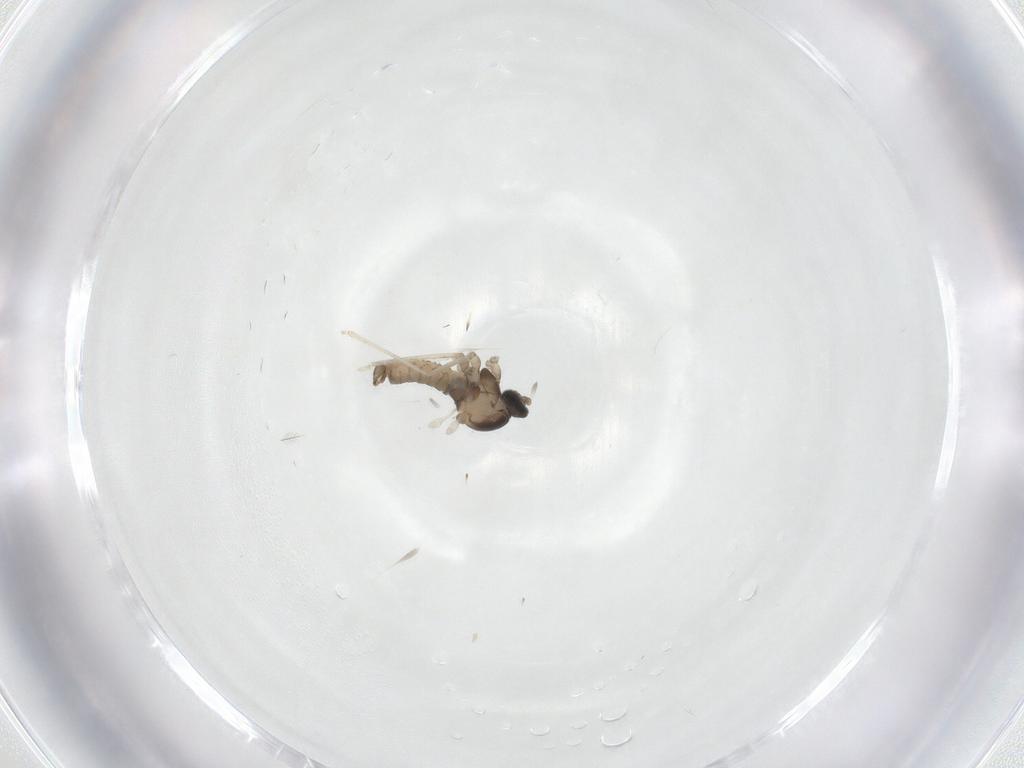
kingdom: Animalia
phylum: Arthropoda
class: Insecta
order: Diptera
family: Cecidomyiidae
